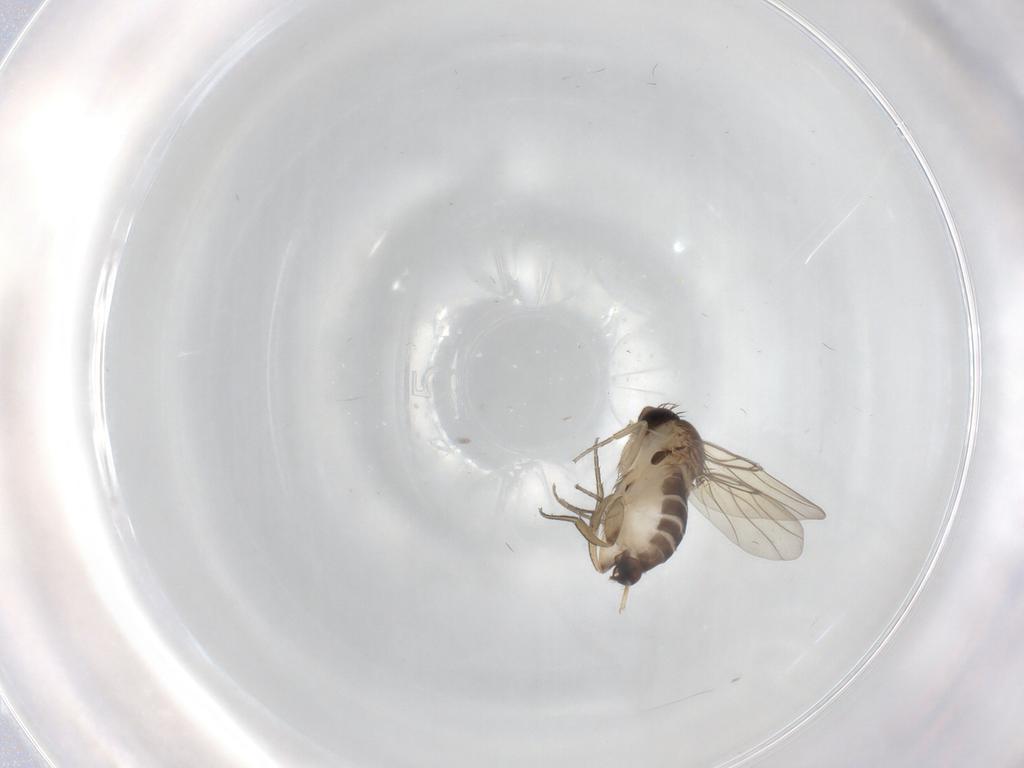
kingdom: Animalia
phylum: Arthropoda
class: Insecta
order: Diptera
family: Phoridae
